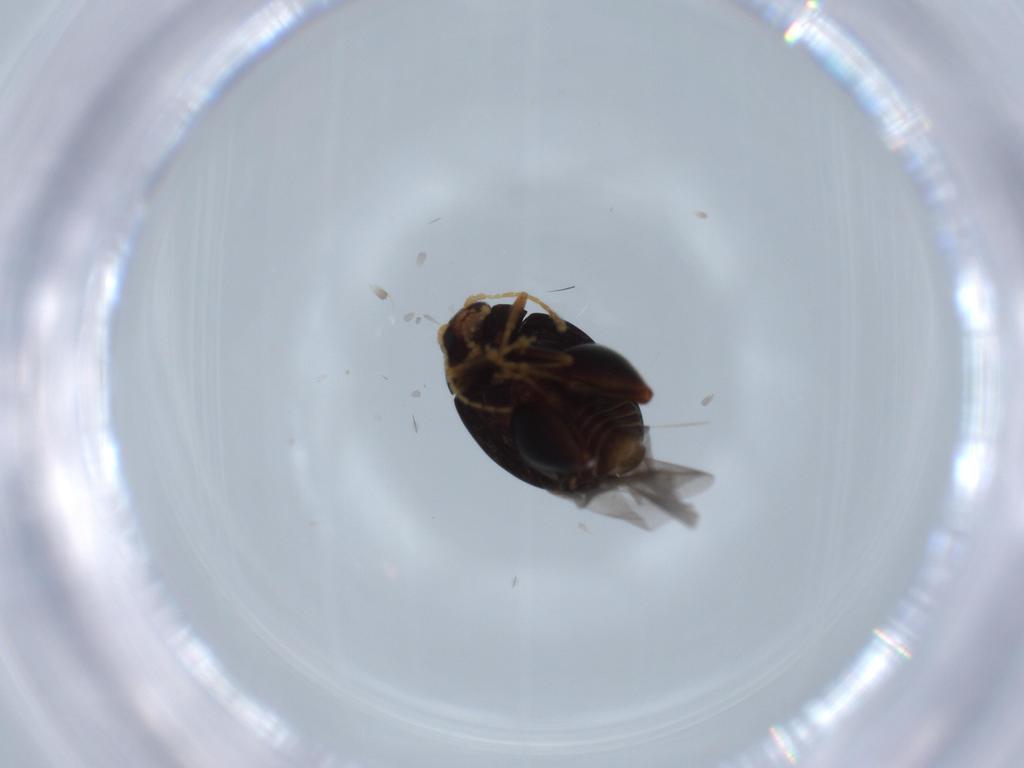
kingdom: Animalia
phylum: Arthropoda
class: Insecta
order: Coleoptera
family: Chrysomelidae
